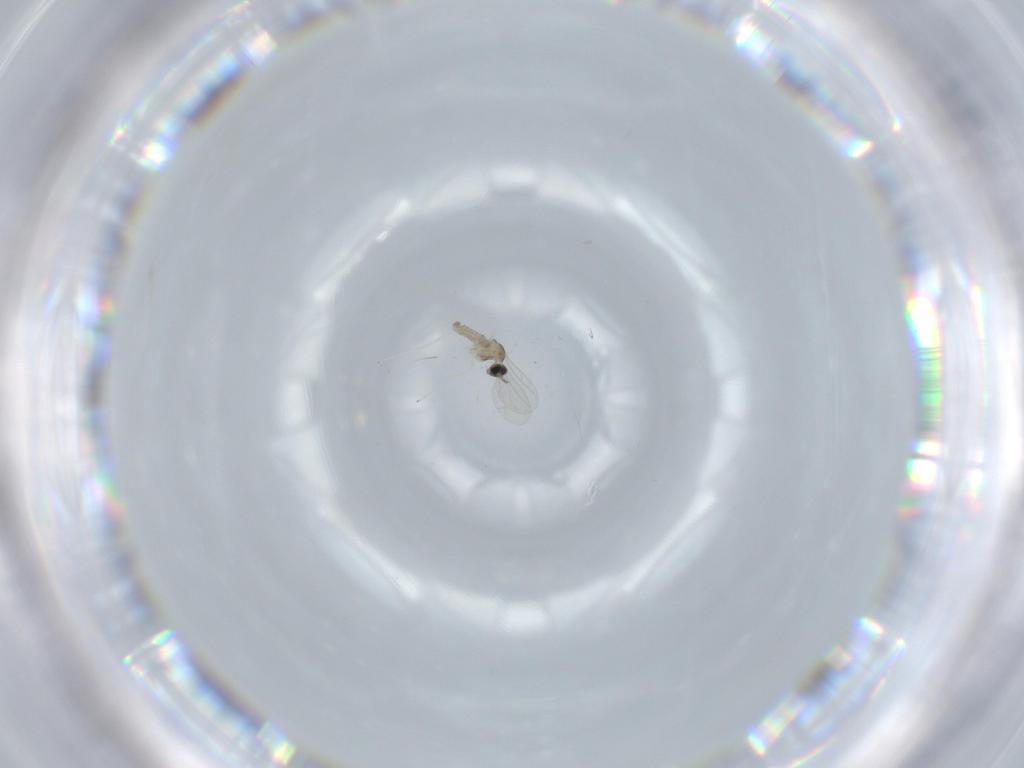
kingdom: Animalia
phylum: Arthropoda
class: Insecta
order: Diptera
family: Cecidomyiidae
